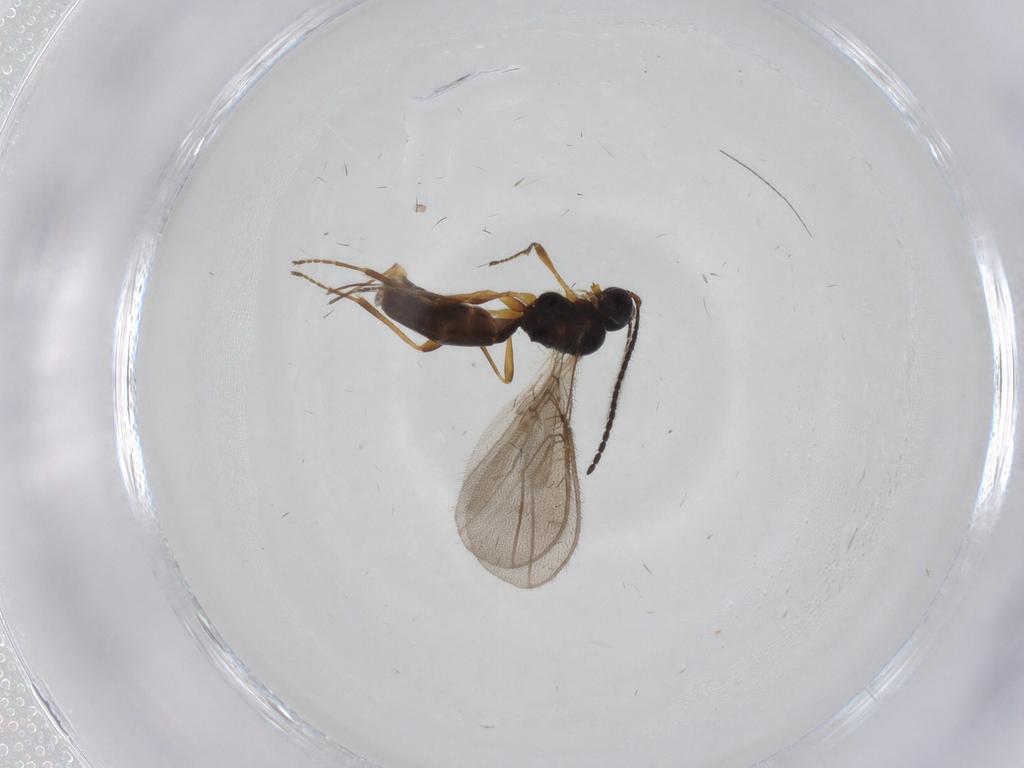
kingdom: Animalia
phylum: Arthropoda
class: Insecta
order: Hymenoptera
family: Braconidae
